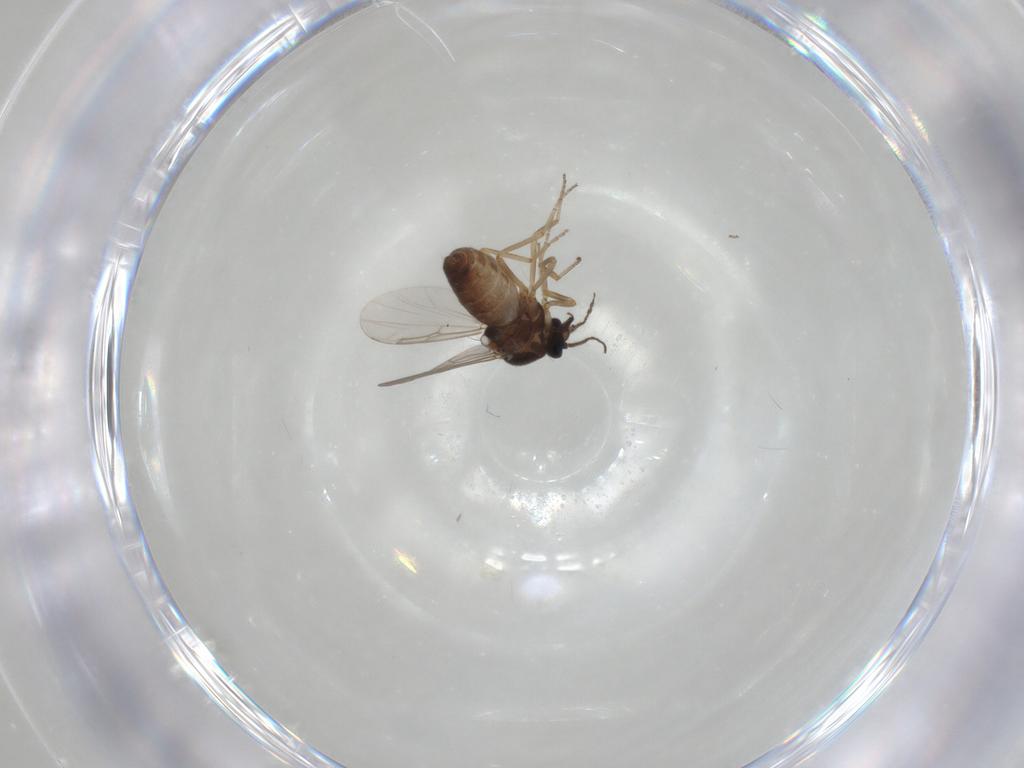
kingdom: Animalia
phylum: Arthropoda
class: Insecta
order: Diptera
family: Ceratopogonidae
